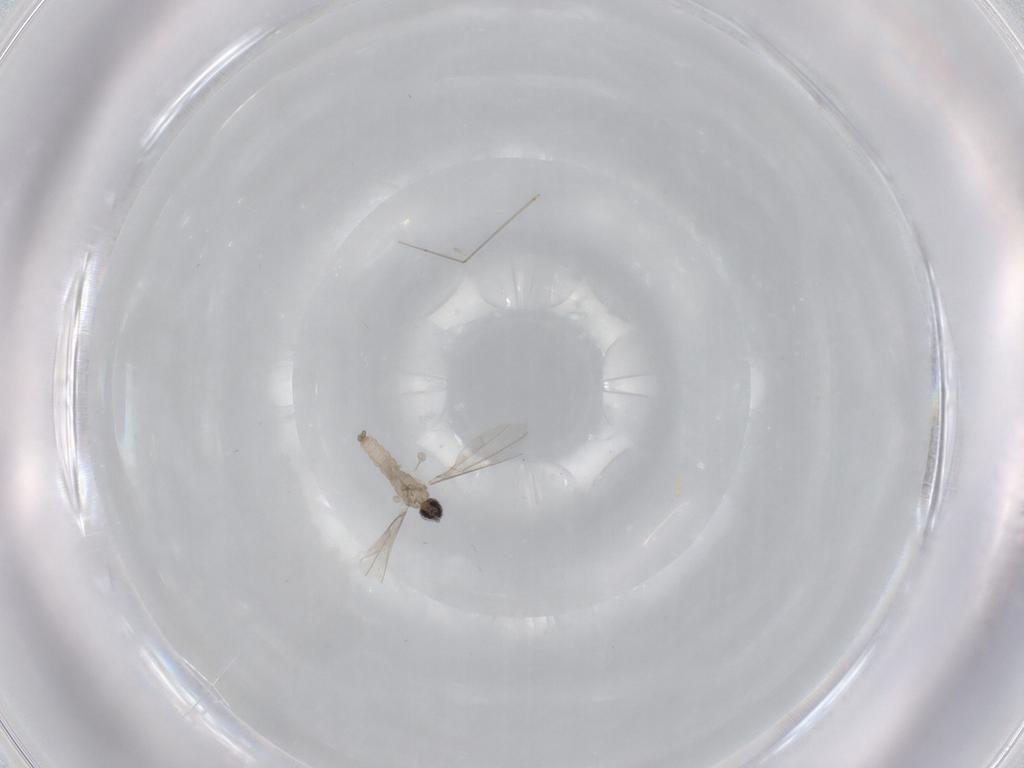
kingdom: Animalia
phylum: Arthropoda
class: Insecta
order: Diptera
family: Cecidomyiidae
